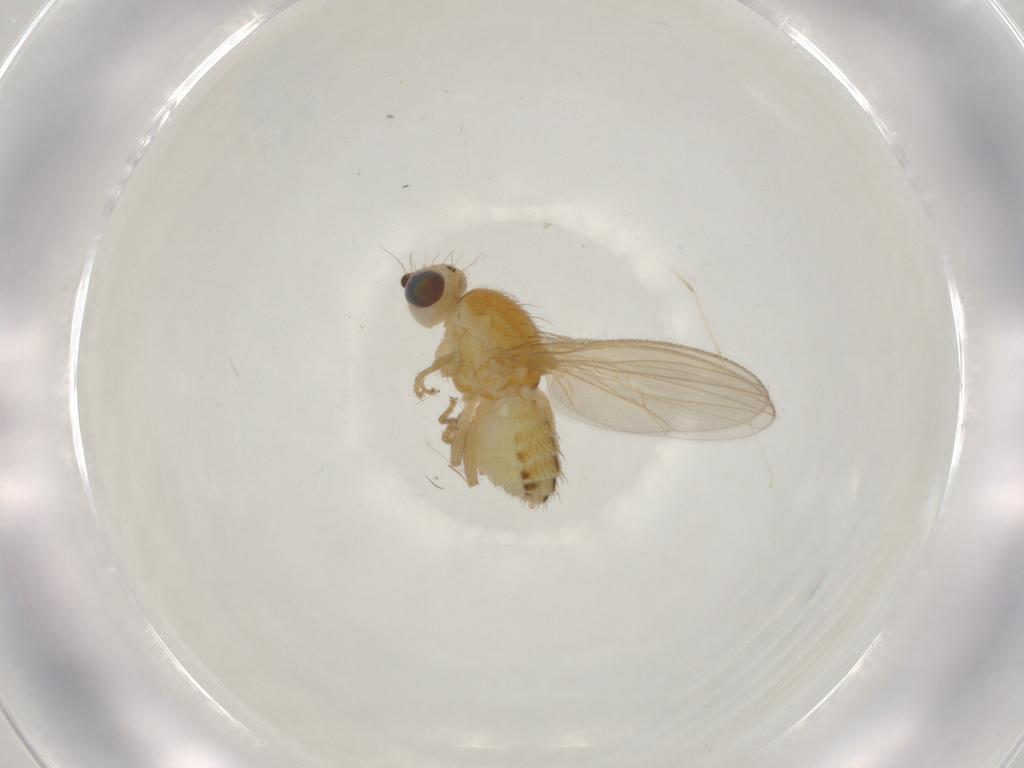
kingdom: Animalia
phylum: Arthropoda
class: Insecta
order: Diptera
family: Chyromyidae
